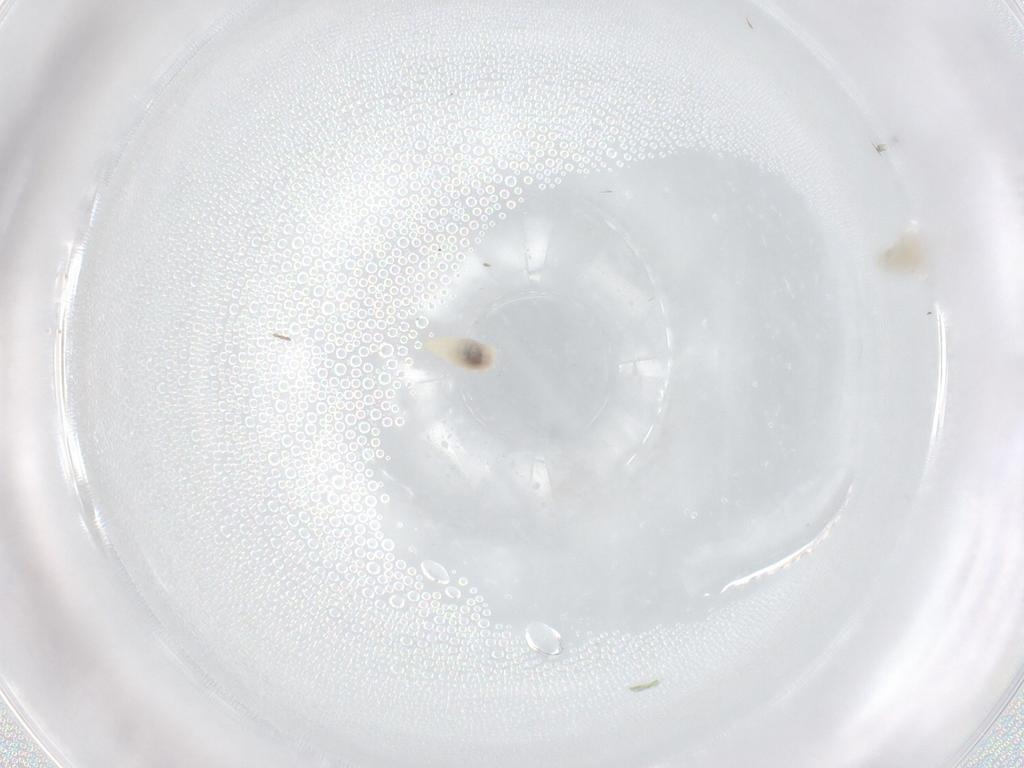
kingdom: Animalia
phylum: Arthropoda
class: Insecta
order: Diptera
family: Cecidomyiidae
